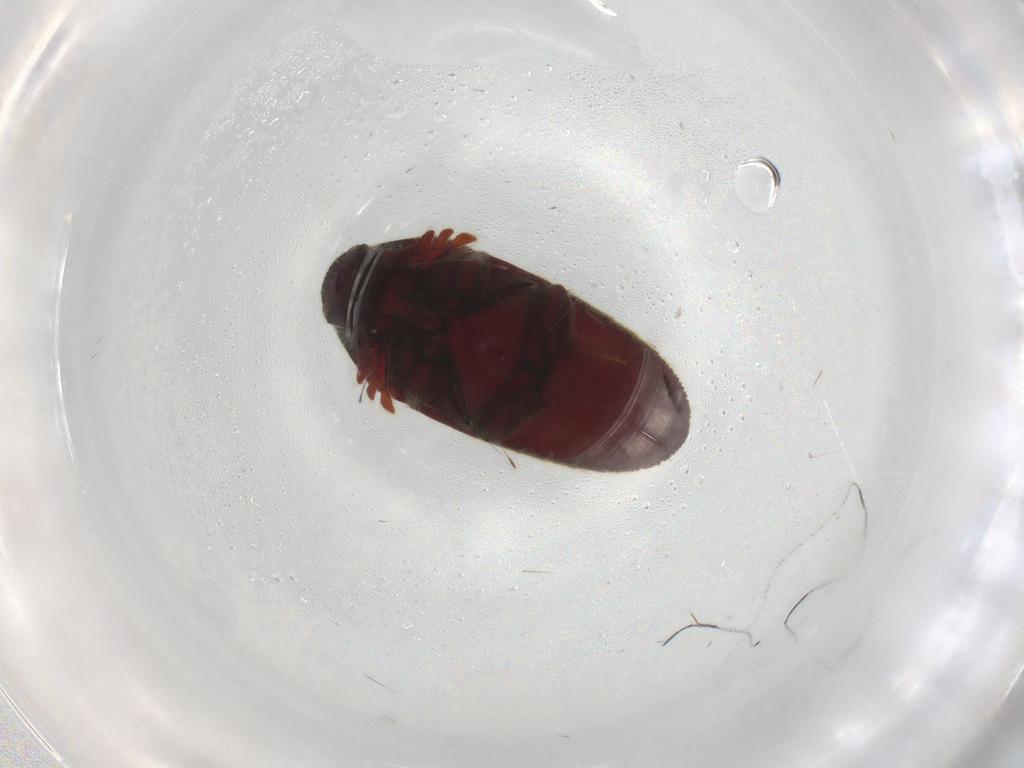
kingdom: Animalia
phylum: Arthropoda
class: Insecta
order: Coleoptera
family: Throscidae
